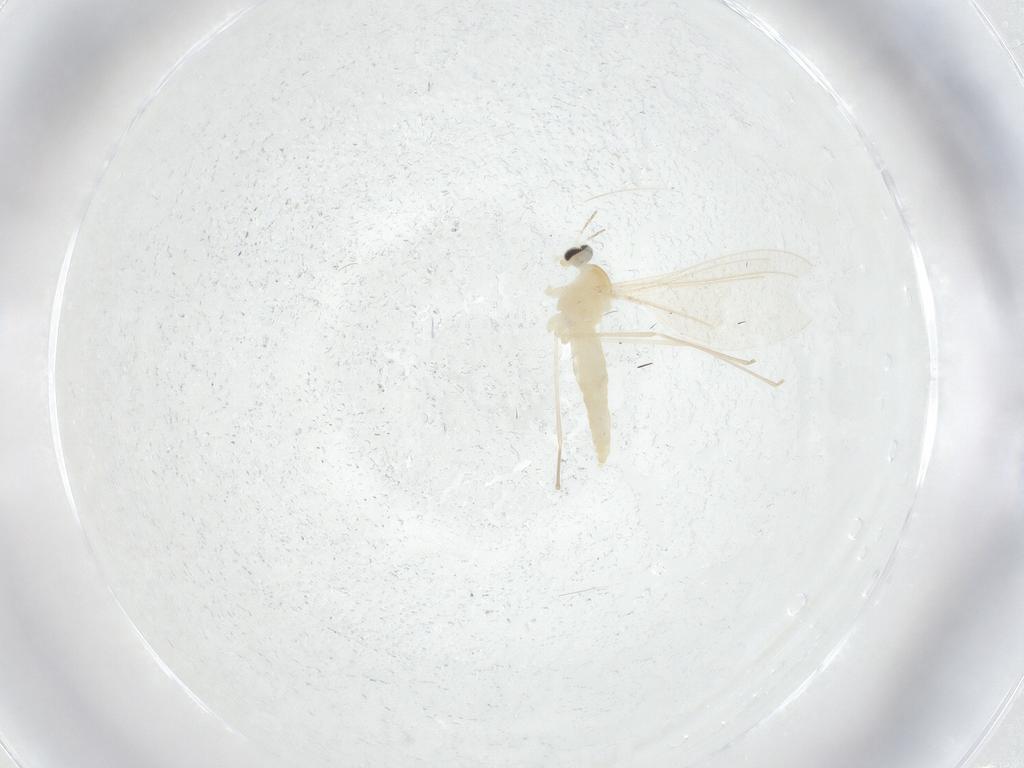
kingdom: Animalia
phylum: Arthropoda
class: Insecta
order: Diptera
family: Cecidomyiidae
